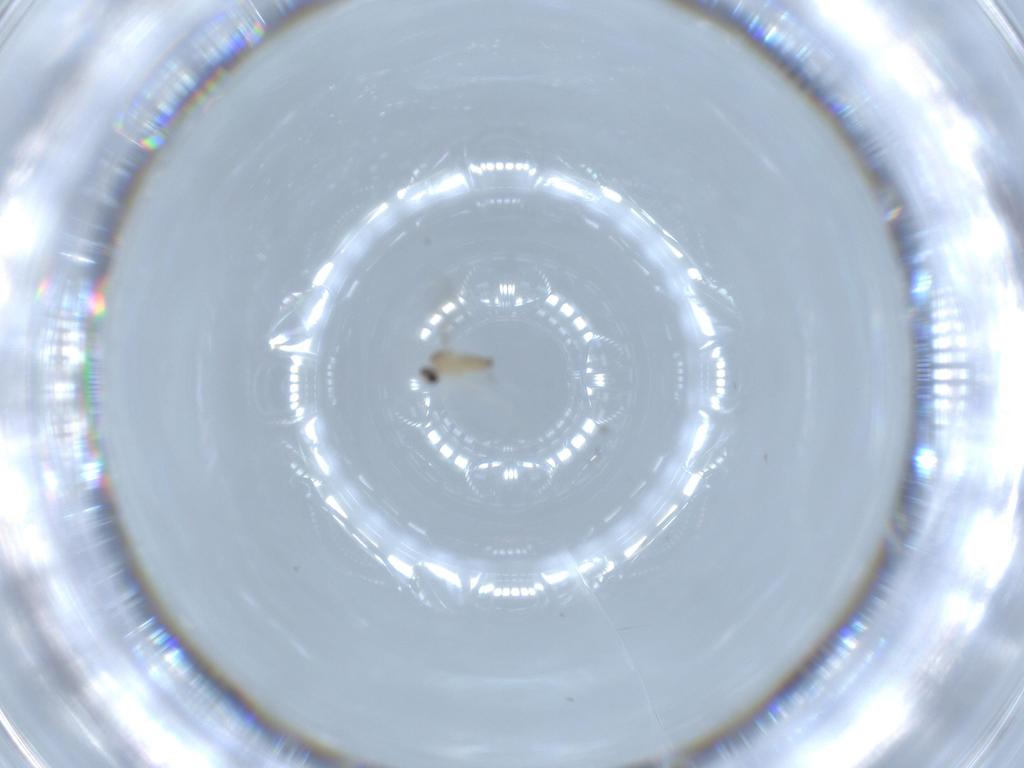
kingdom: Animalia
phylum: Arthropoda
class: Insecta
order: Diptera
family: Cecidomyiidae
